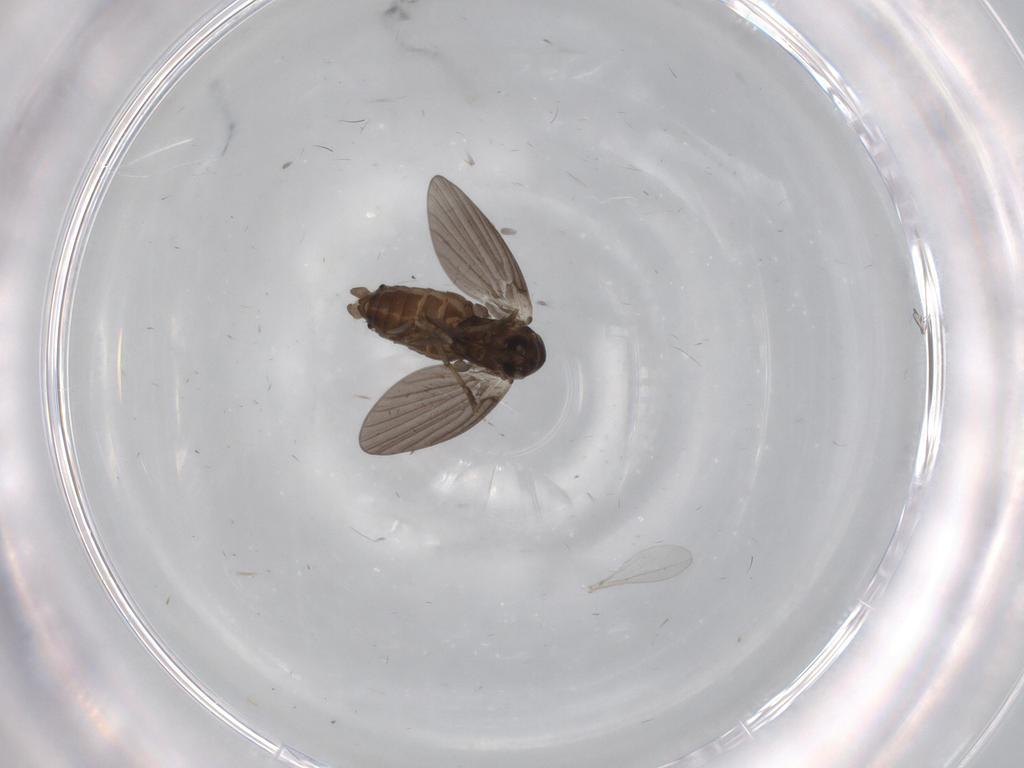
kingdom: Animalia
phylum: Arthropoda
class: Insecta
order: Diptera
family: Psychodidae
